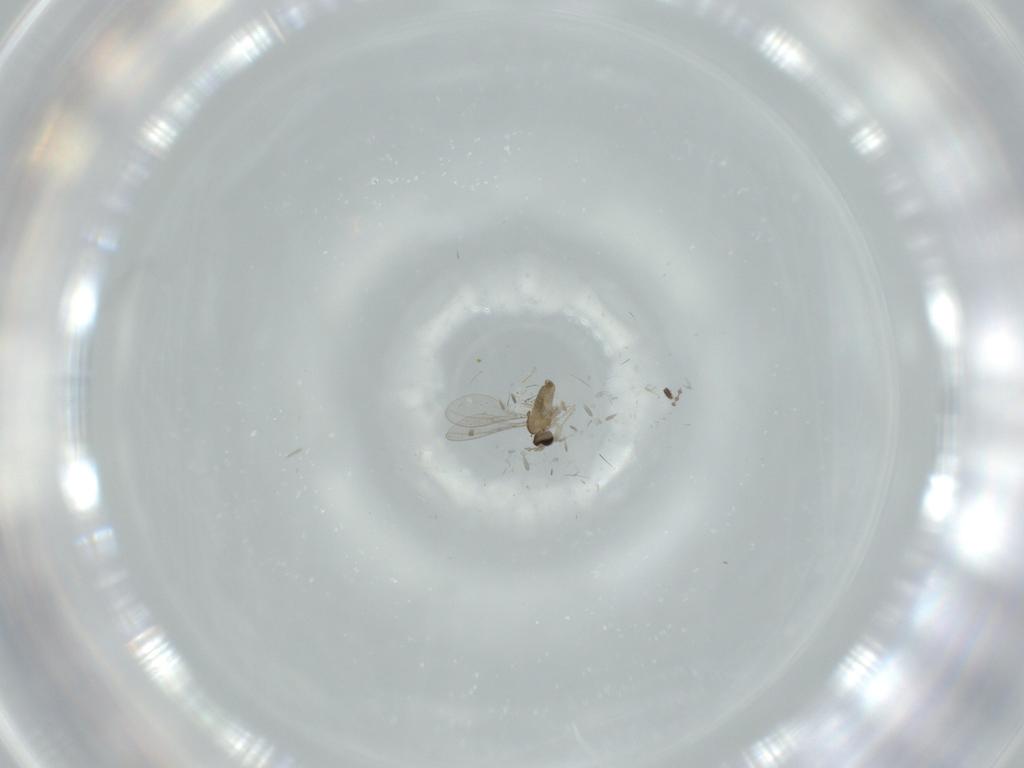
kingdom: Animalia
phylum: Arthropoda
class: Insecta
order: Diptera
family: Cecidomyiidae
